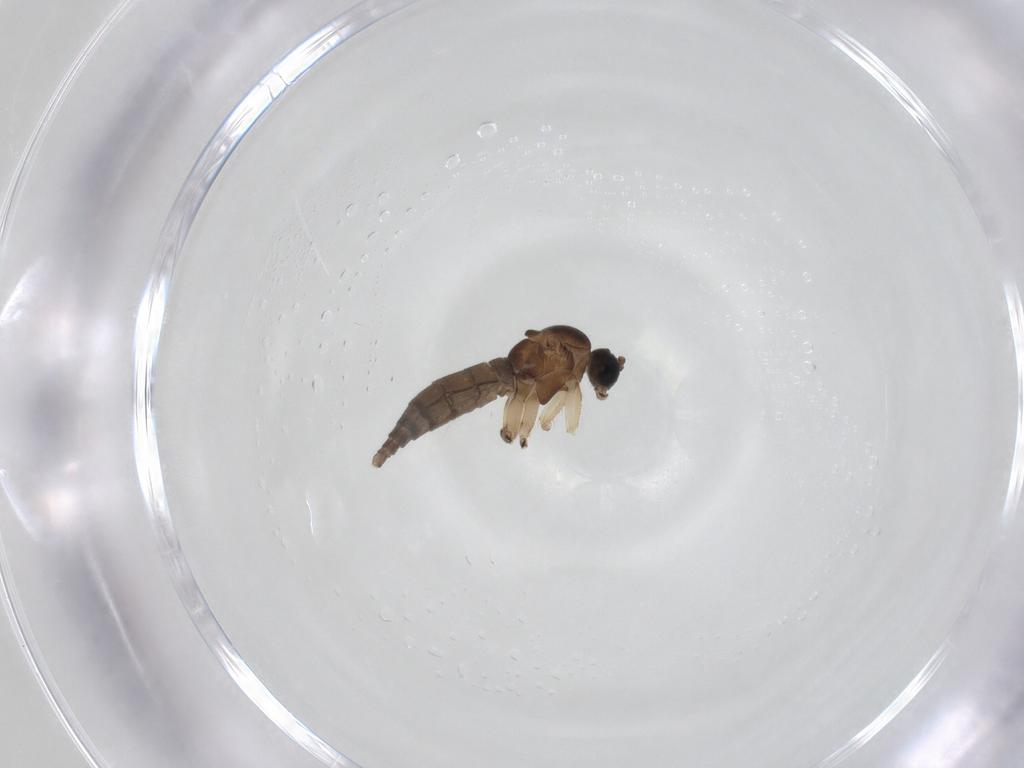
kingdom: Animalia
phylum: Arthropoda
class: Insecta
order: Diptera
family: Sciaridae
